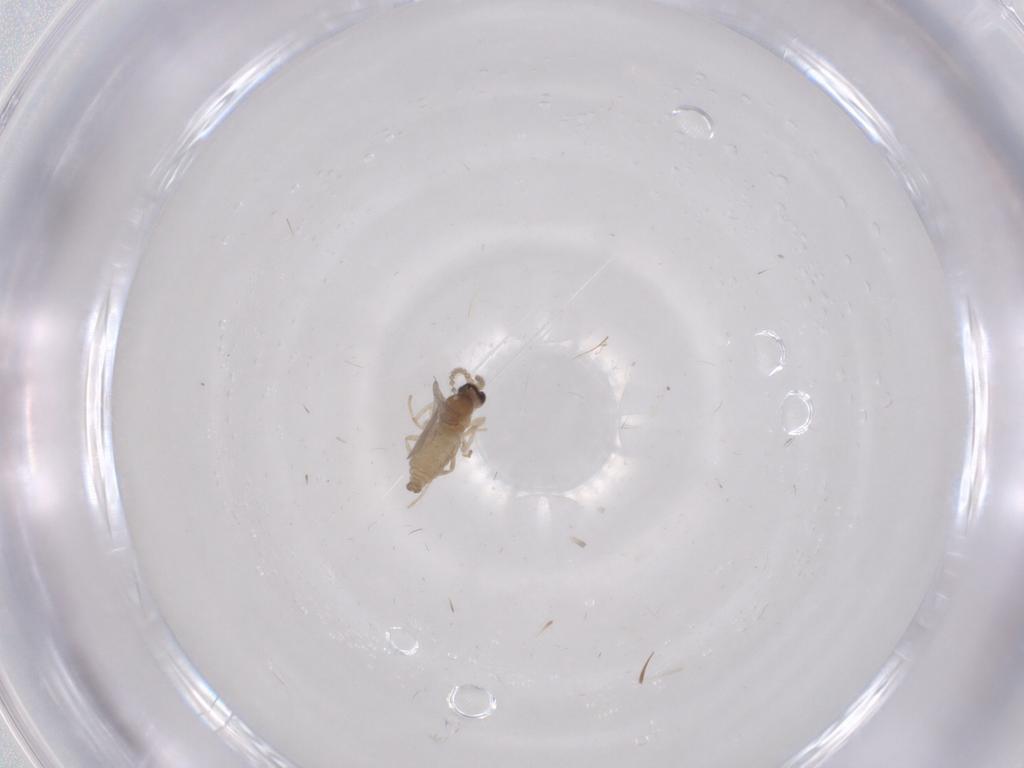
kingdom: Animalia
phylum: Arthropoda
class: Insecta
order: Diptera
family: Cecidomyiidae
